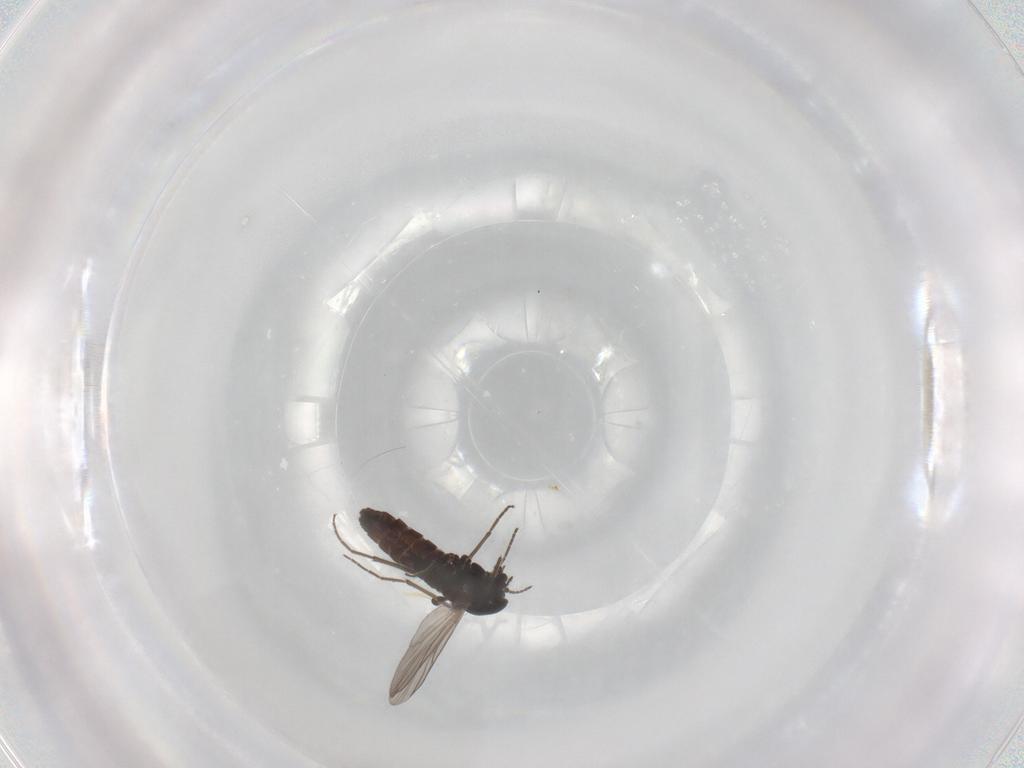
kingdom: Animalia
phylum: Arthropoda
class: Insecta
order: Diptera
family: Chironomidae
